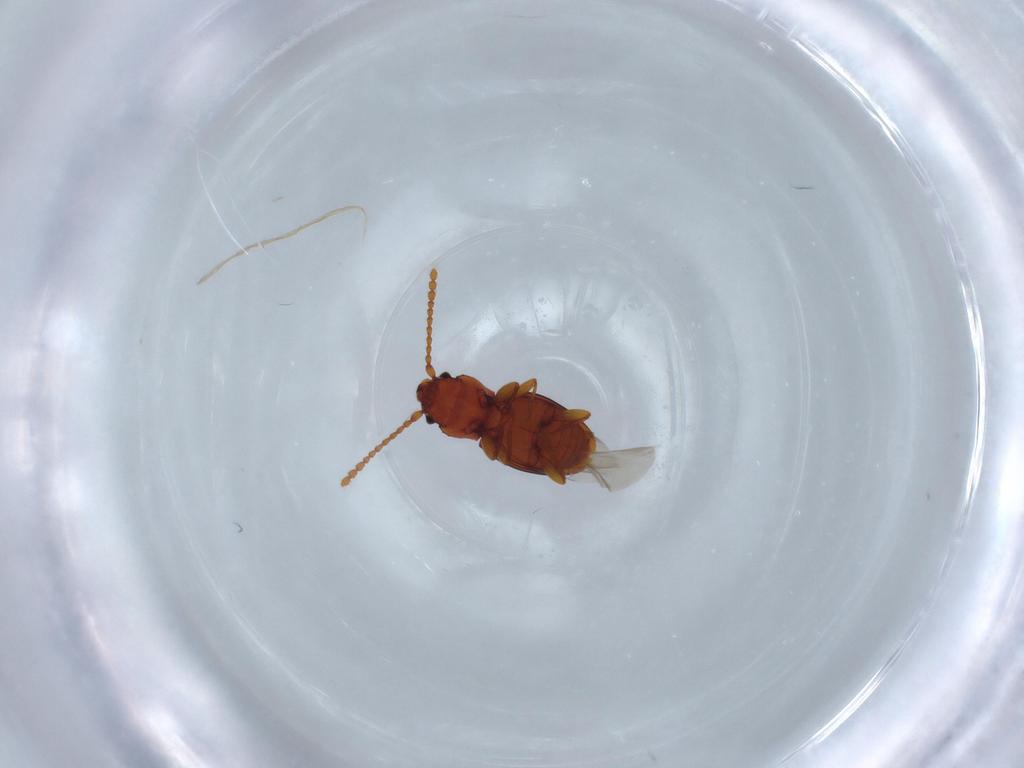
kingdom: Animalia
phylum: Arthropoda
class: Insecta
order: Coleoptera
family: Laemophloeidae
